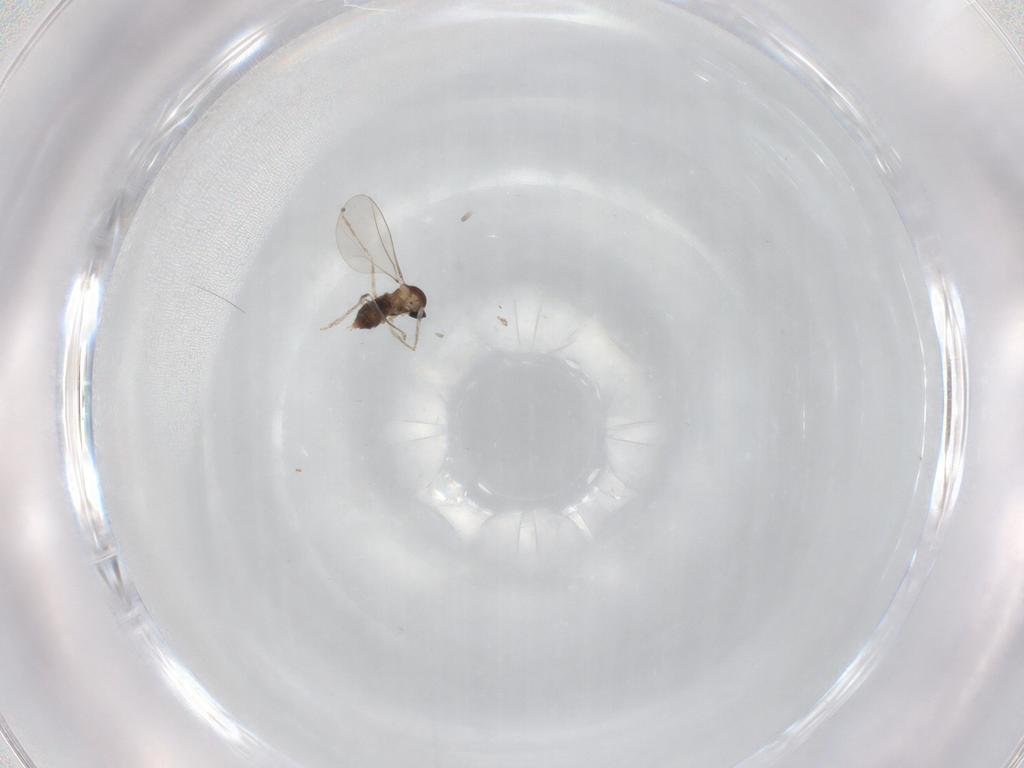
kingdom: Animalia
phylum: Arthropoda
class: Insecta
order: Diptera
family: Cecidomyiidae
